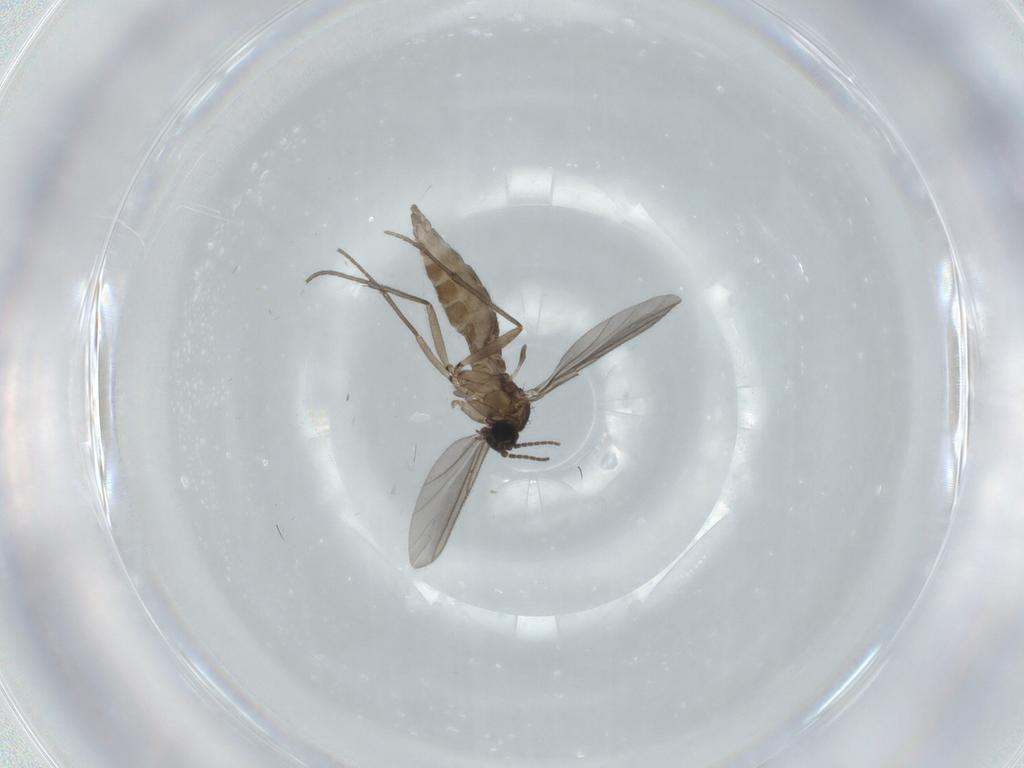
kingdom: Animalia
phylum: Arthropoda
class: Insecta
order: Diptera
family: Sciaridae
